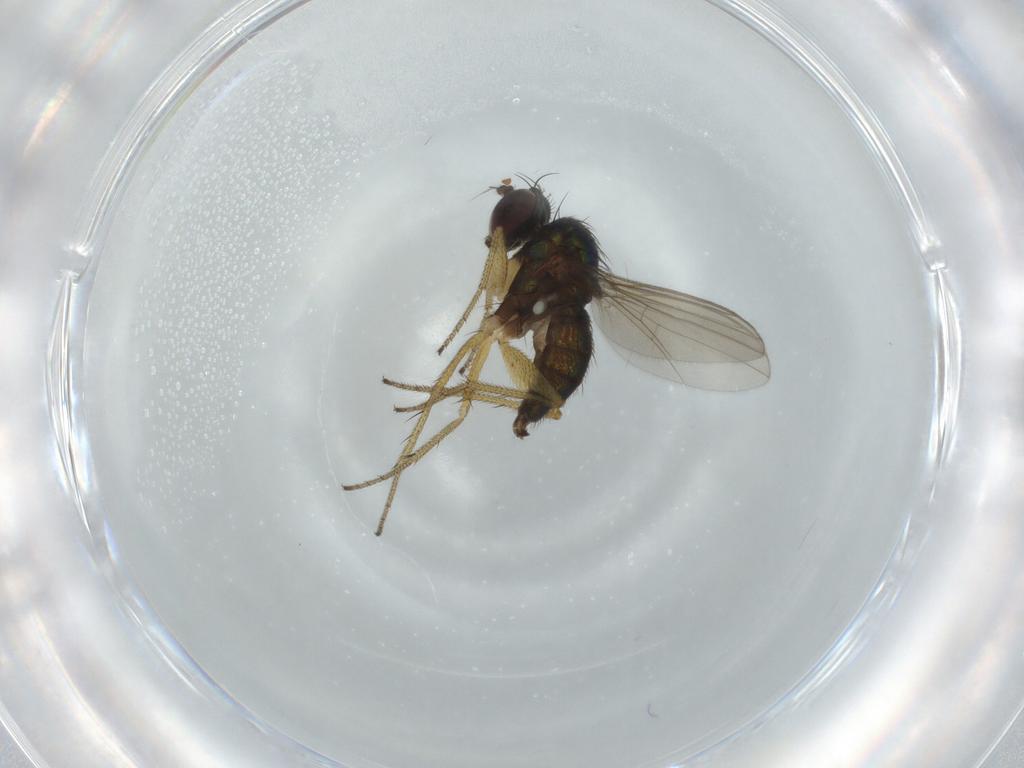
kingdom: Animalia
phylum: Arthropoda
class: Insecta
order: Diptera
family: Dolichopodidae
